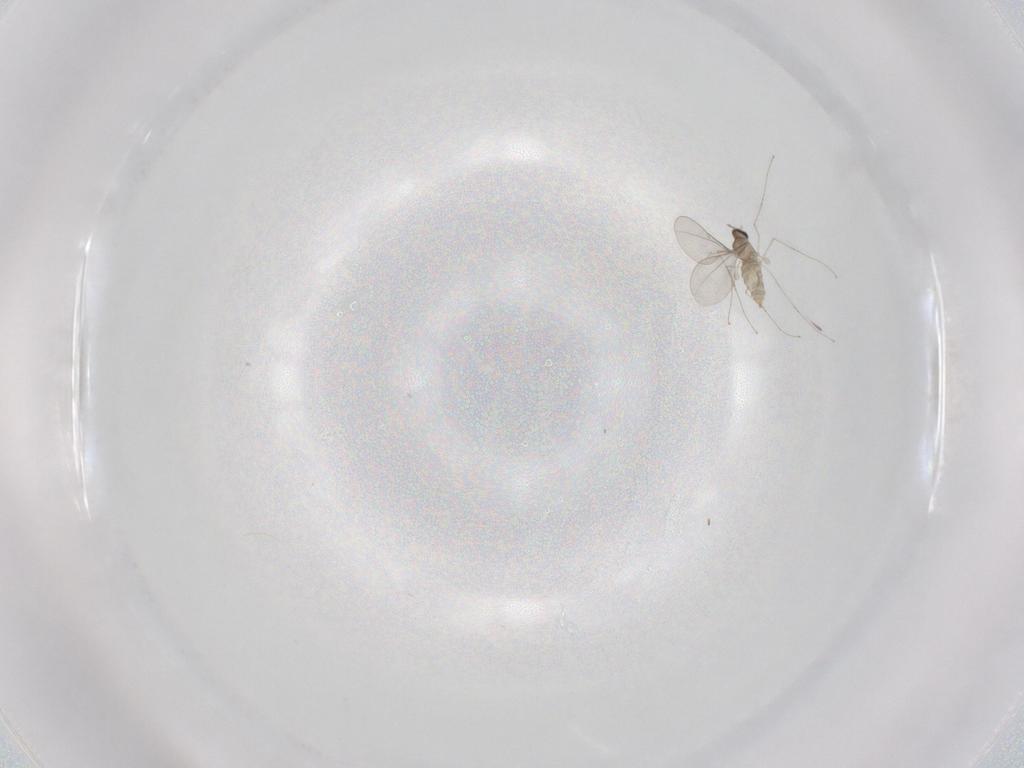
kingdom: Animalia
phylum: Arthropoda
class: Insecta
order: Diptera
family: Cecidomyiidae
